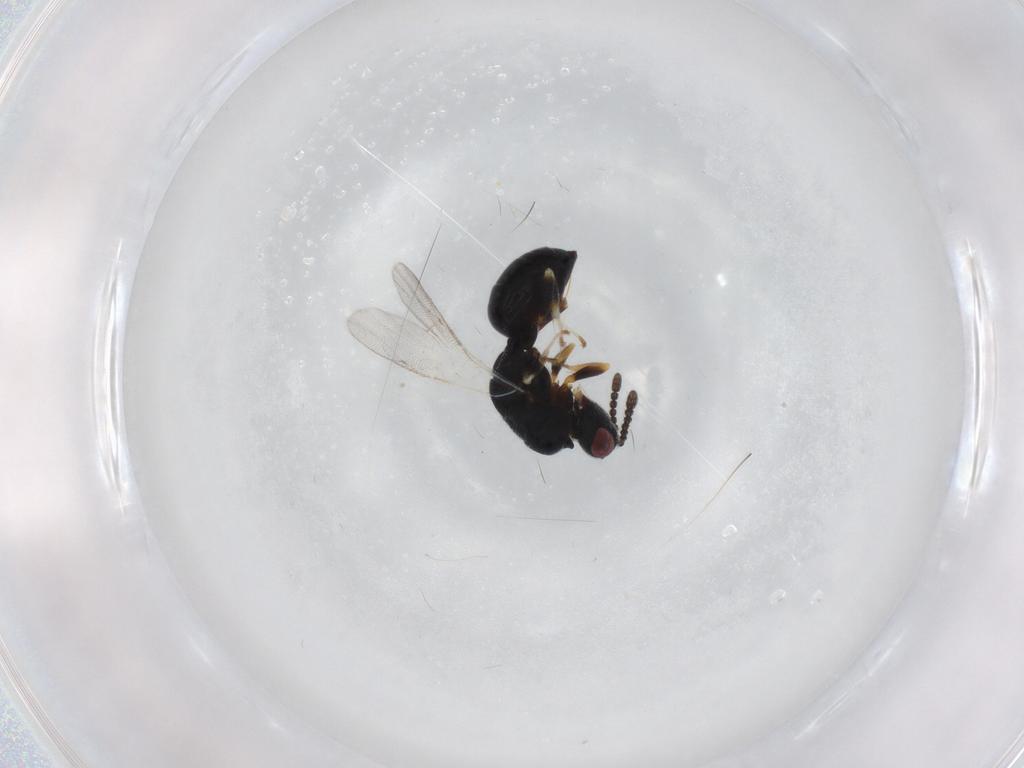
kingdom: Animalia
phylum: Arthropoda
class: Insecta
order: Hymenoptera
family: Eurytomidae
